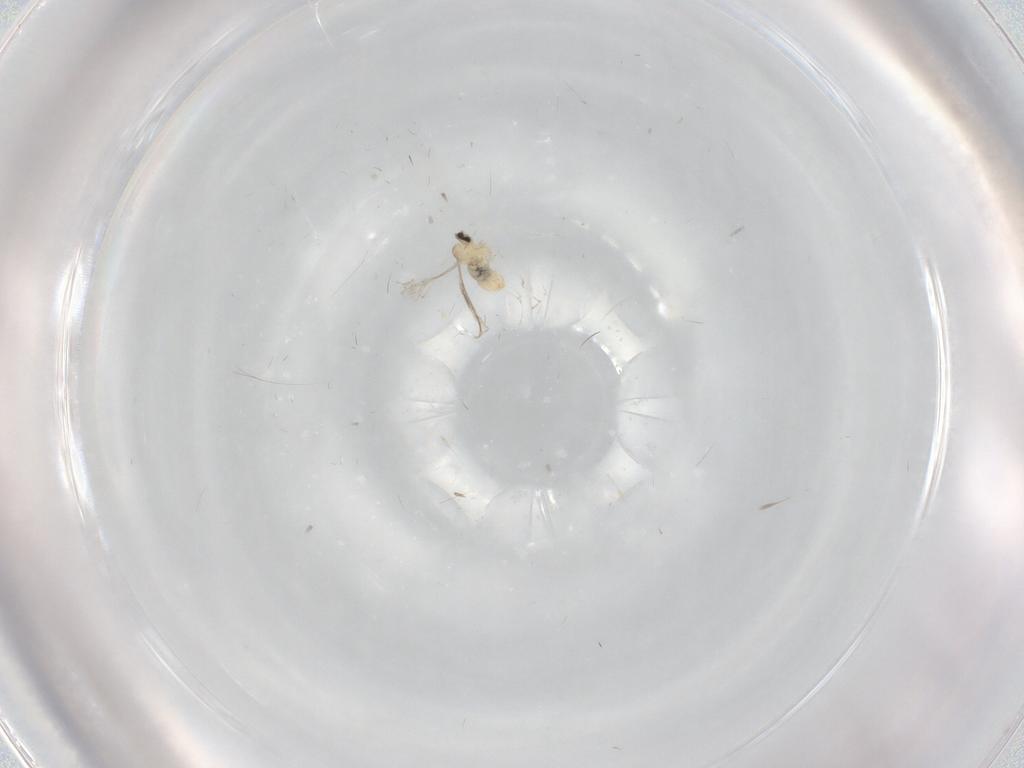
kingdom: Animalia
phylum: Arthropoda
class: Insecta
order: Diptera
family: Cecidomyiidae
